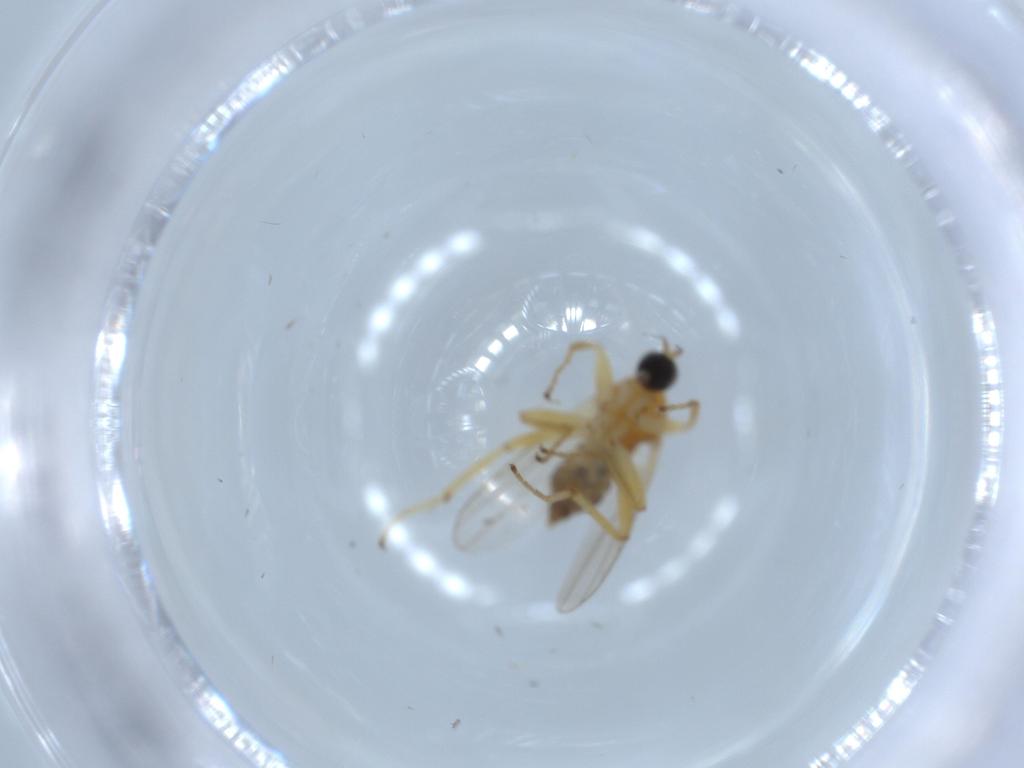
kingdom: Animalia
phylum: Arthropoda
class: Insecta
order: Diptera
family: Hybotidae
